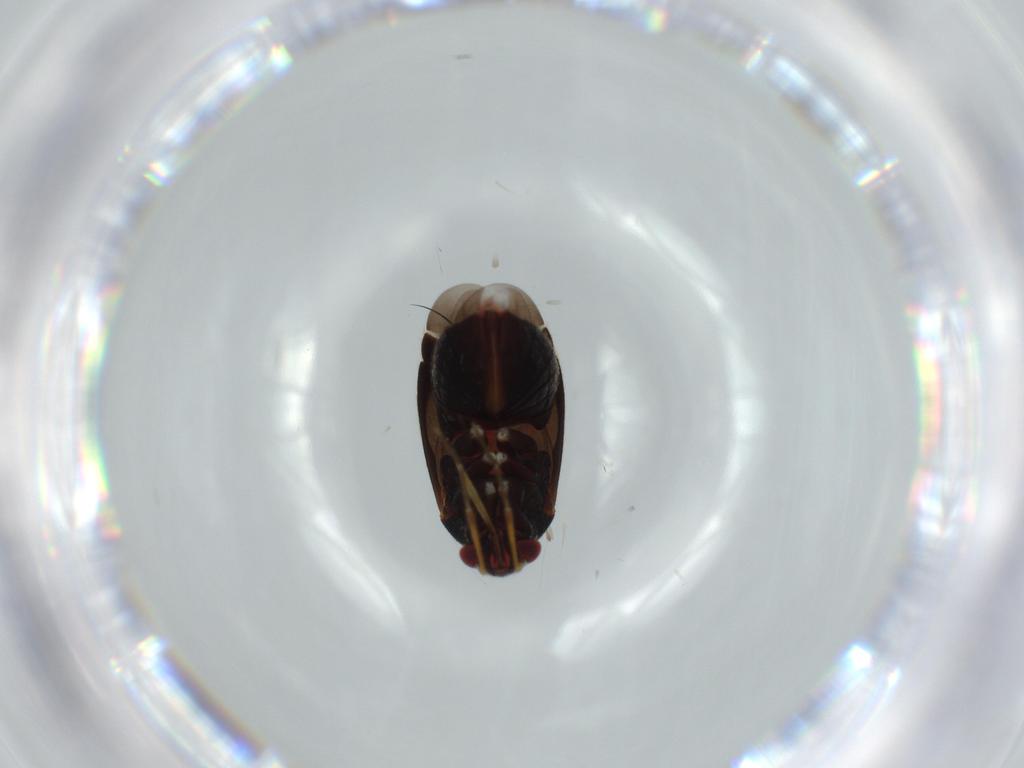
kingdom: Animalia
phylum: Arthropoda
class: Insecta
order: Hemiptera
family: Miridae
